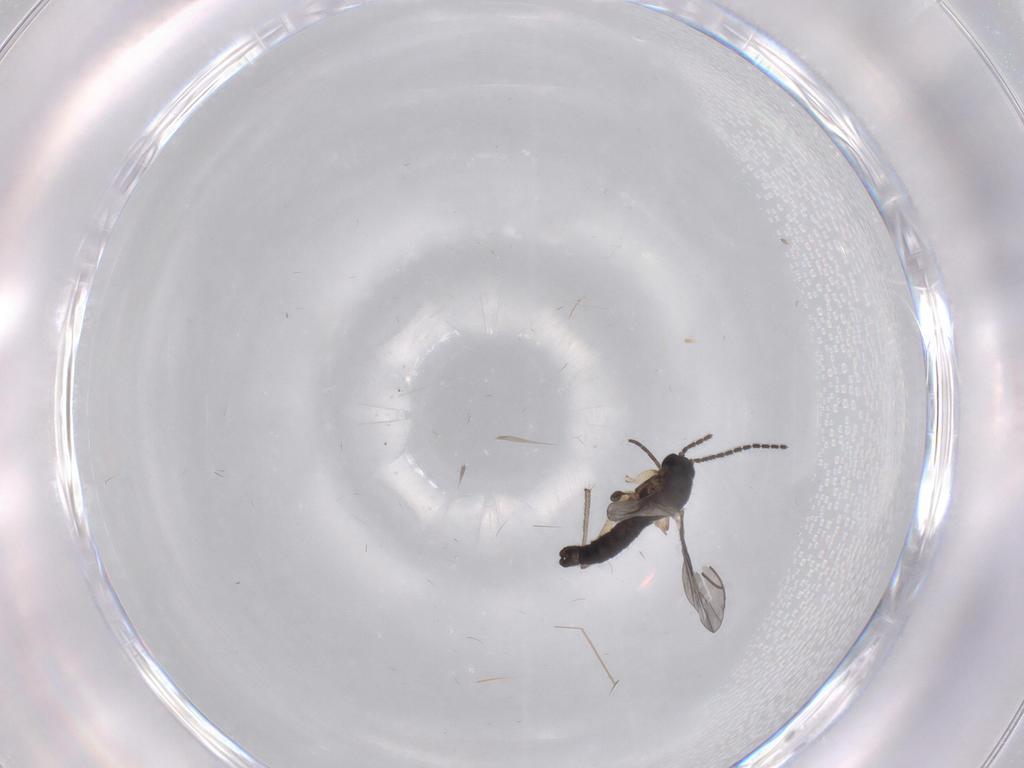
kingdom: Animalia
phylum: Arthropoda
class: Insecta
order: Diptera
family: Sciaridae
